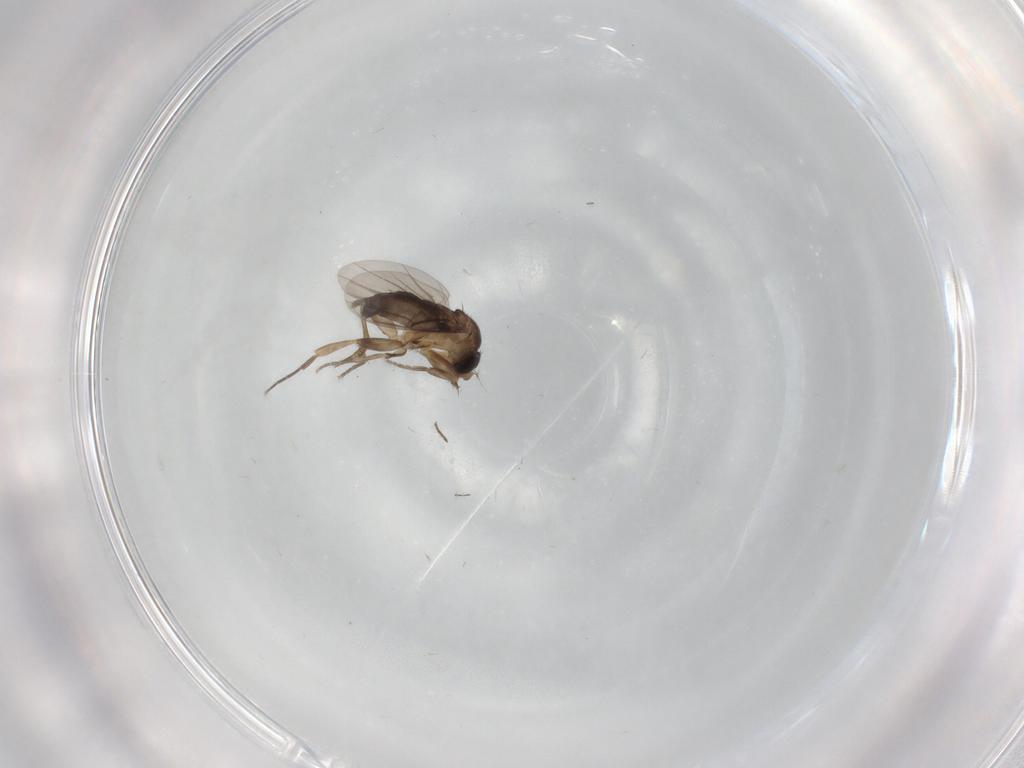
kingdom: Animalia
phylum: Arthropoda
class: Insecta
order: Diptera
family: Phoridae
